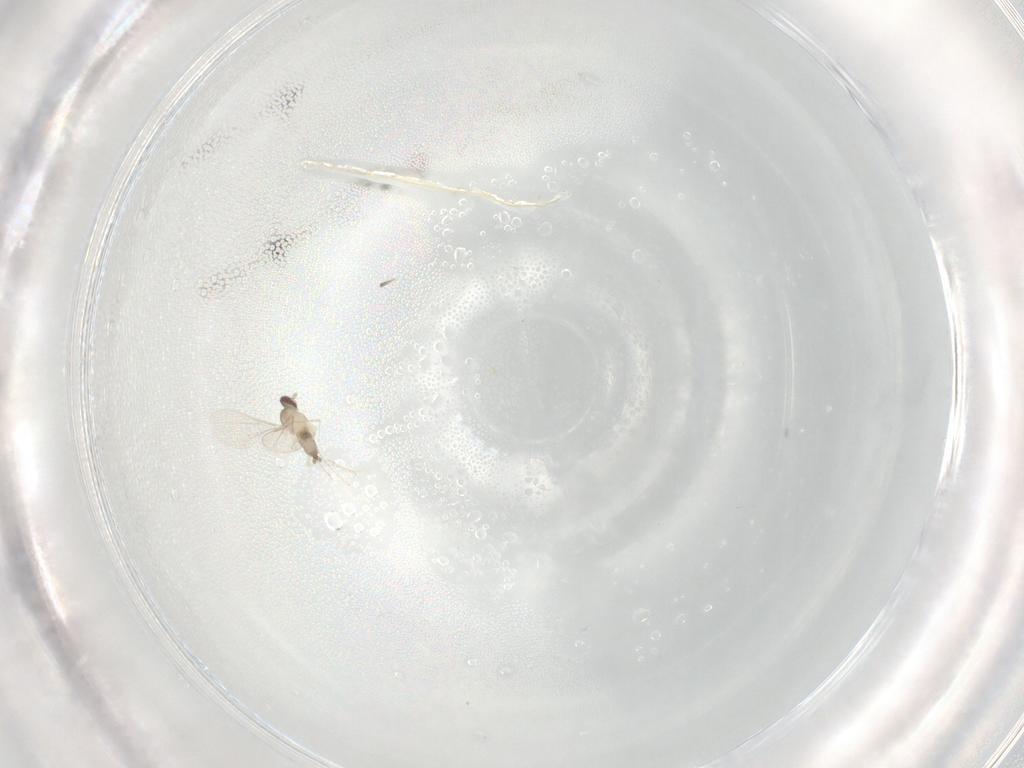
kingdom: Animalia
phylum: Arthropoda
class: Insecta
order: Diptera
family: Cecidomyiidae
